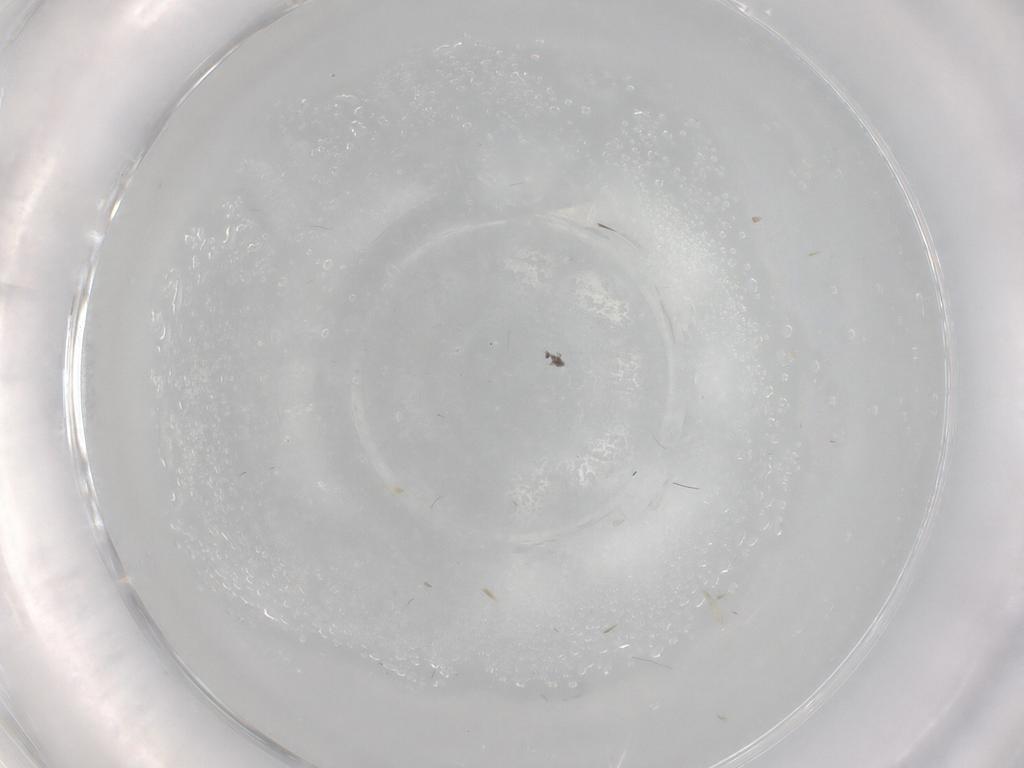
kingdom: Animalia
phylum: Arthropoda
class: Insecta
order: Diptera
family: Cecidomyiidae
